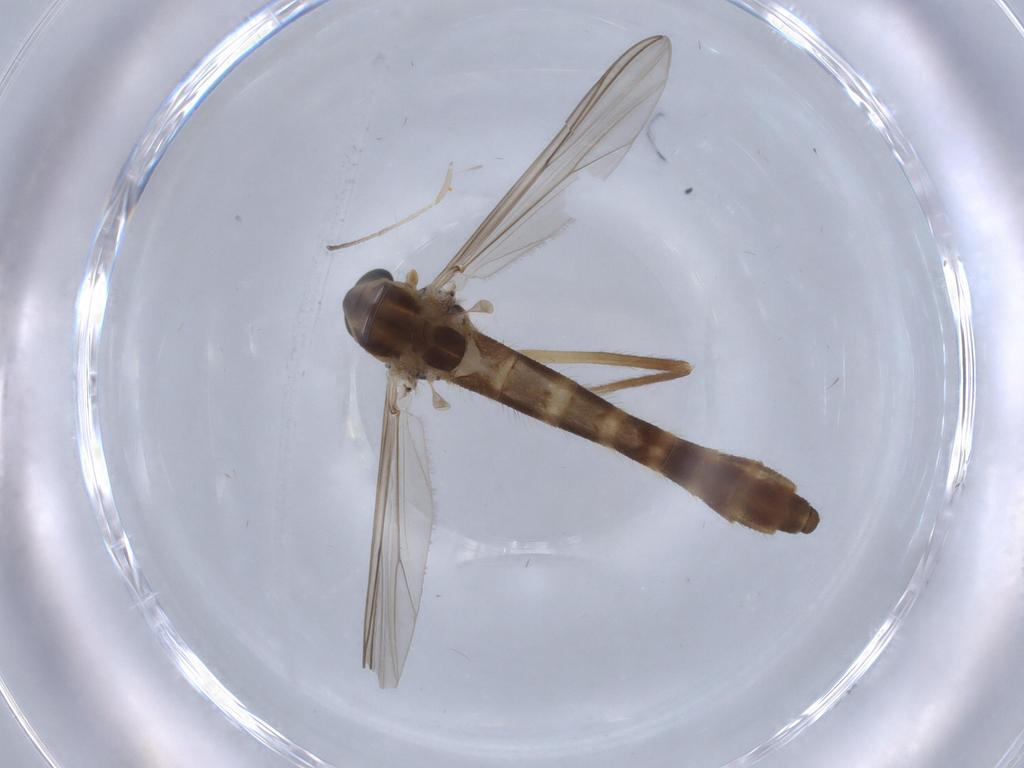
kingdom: Animalia
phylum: Arthropoda
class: Insecta
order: Diptera
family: Chironomidae
